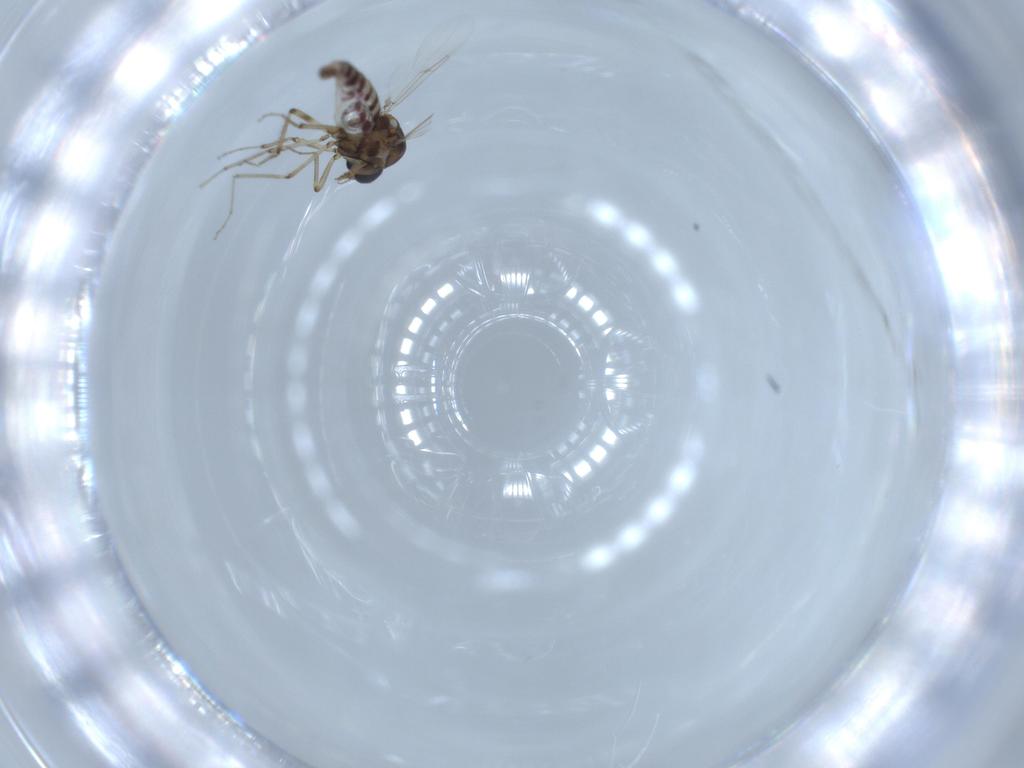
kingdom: Animalia
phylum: Arthropoda
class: Insecta
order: Diptera
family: Ceratopogonidae
